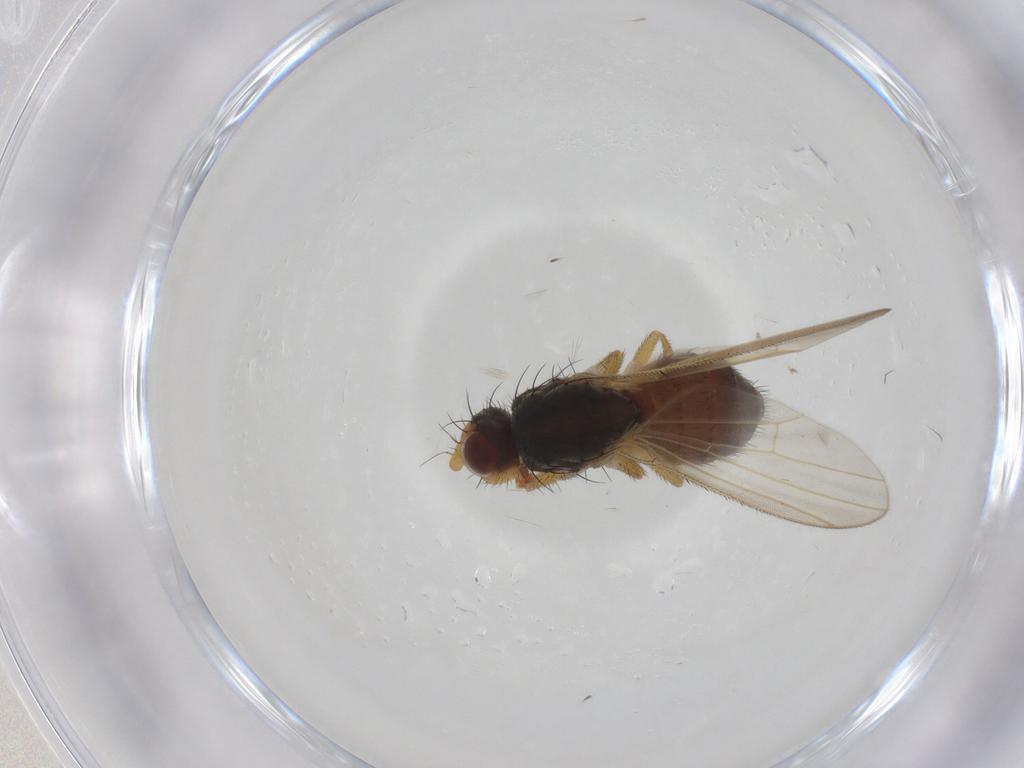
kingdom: Animalia
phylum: Arthropoda
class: Insecta
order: Diptera
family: Heleomyzidae
